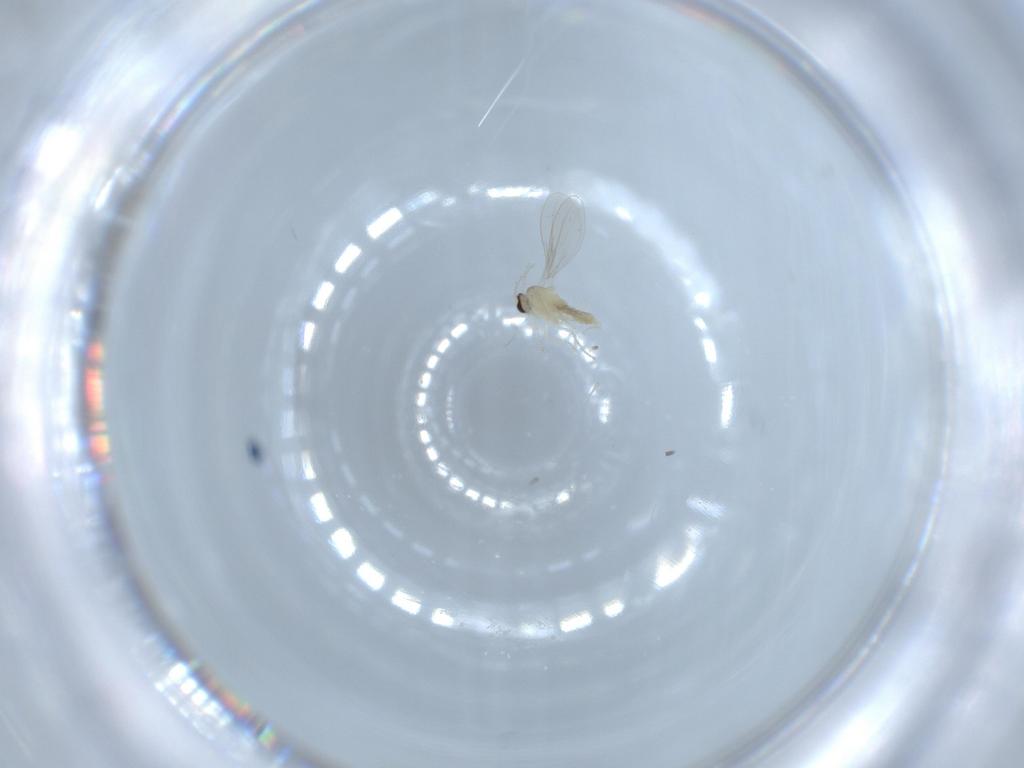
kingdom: Animalia
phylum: Arthropoda
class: Insecta
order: Diptera
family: Cecidomyiidae
